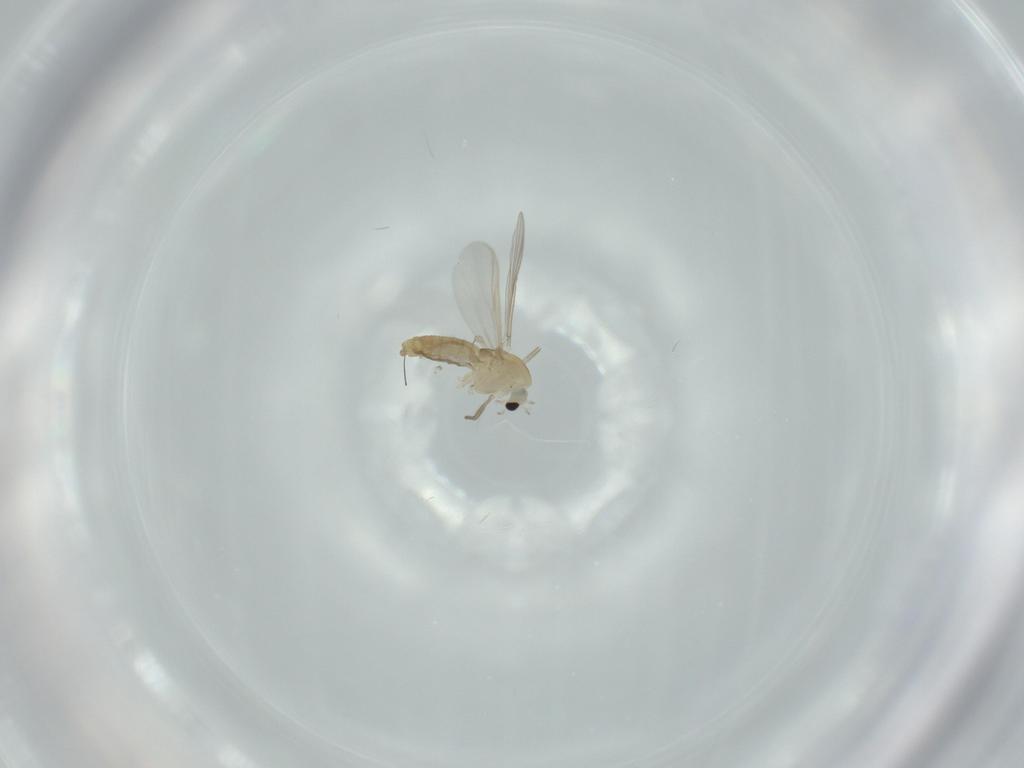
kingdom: Animalia
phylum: Arthropoda
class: Insecta
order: Diptera
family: Chironomidae
